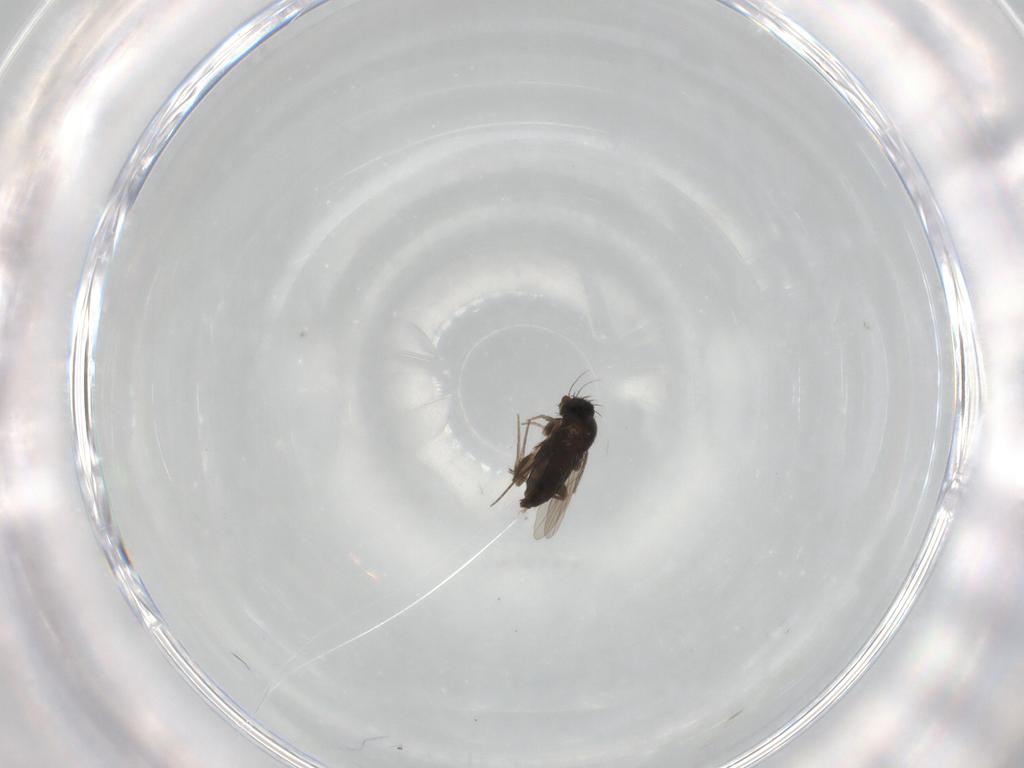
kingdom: Animalia
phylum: Arthropoda
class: Insecta
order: Diptera
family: Phoridae
